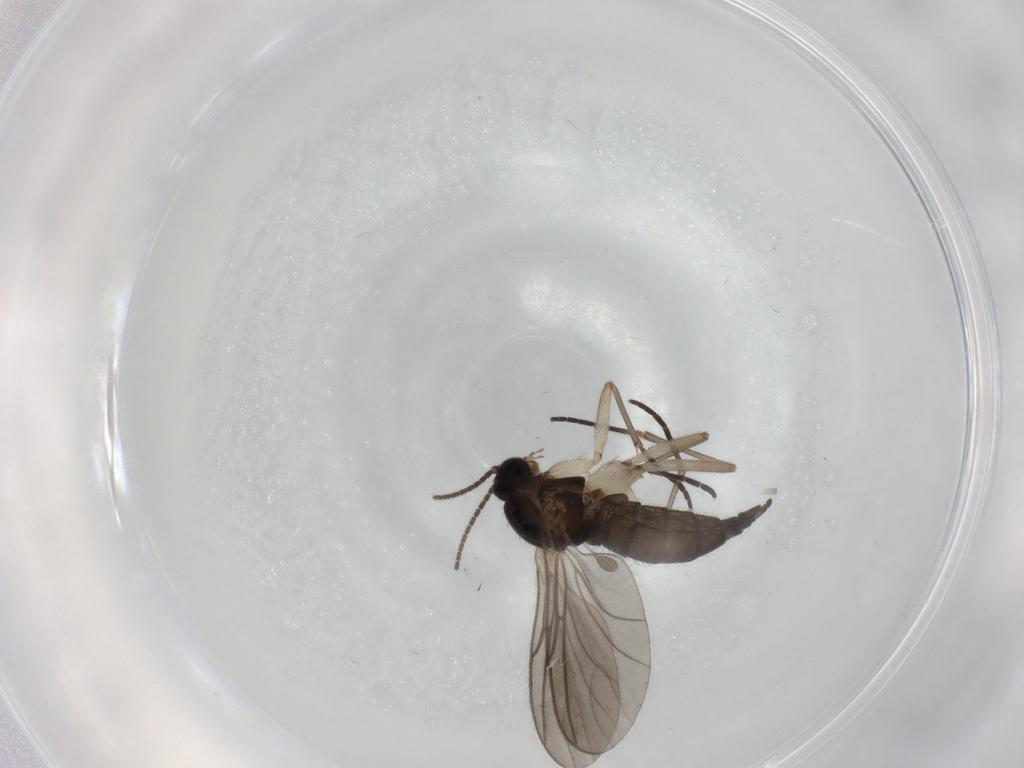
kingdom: Animalia
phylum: Arthropoda
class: Insecta
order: Diptera
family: Sciaridae
